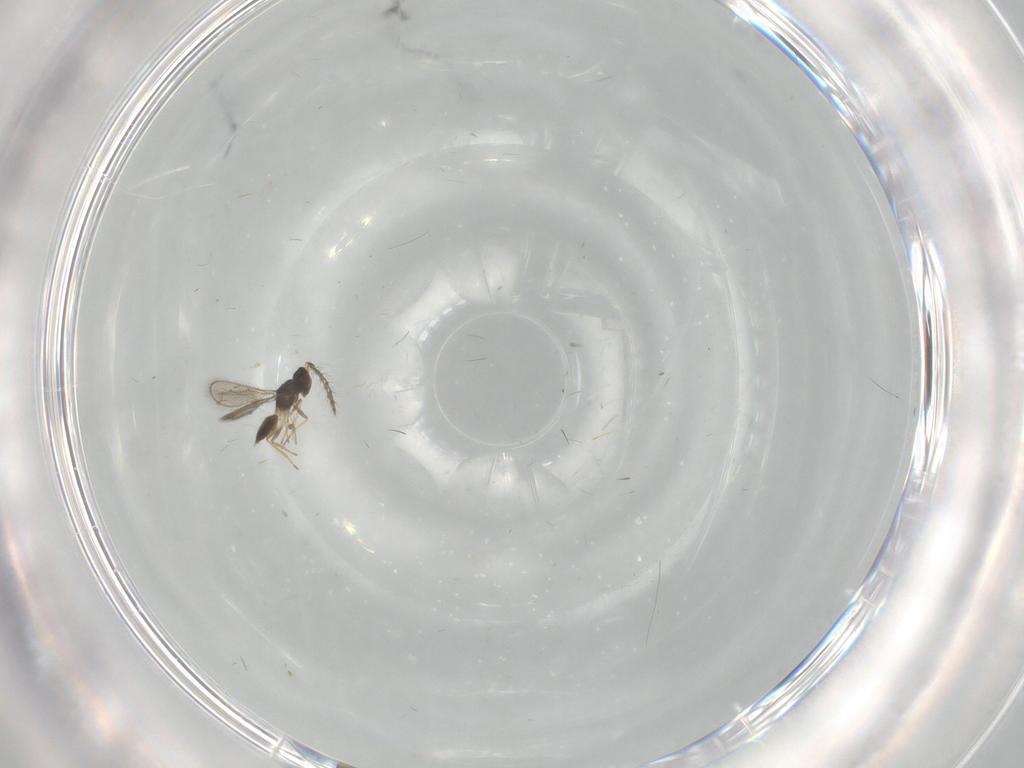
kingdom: Animalia
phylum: Arthropoda
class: Insecta
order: Hymenoptera
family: Eulophidae
